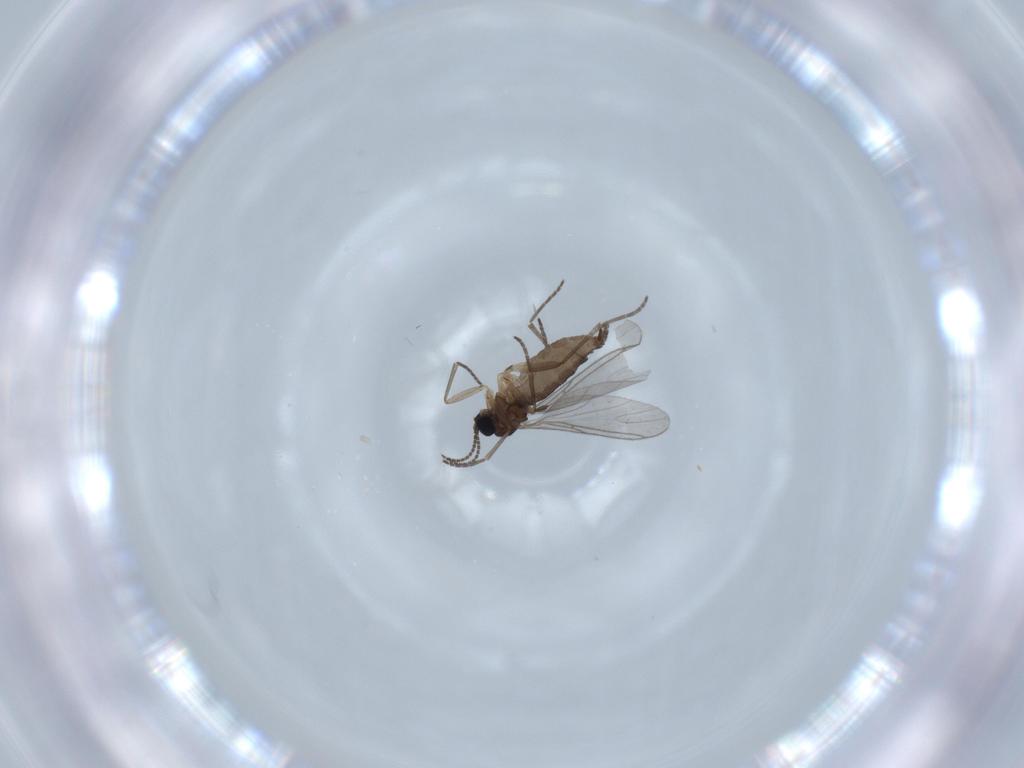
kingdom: Animalia
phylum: Arthropoda
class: Insecta
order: Diptera
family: Sciaridae
